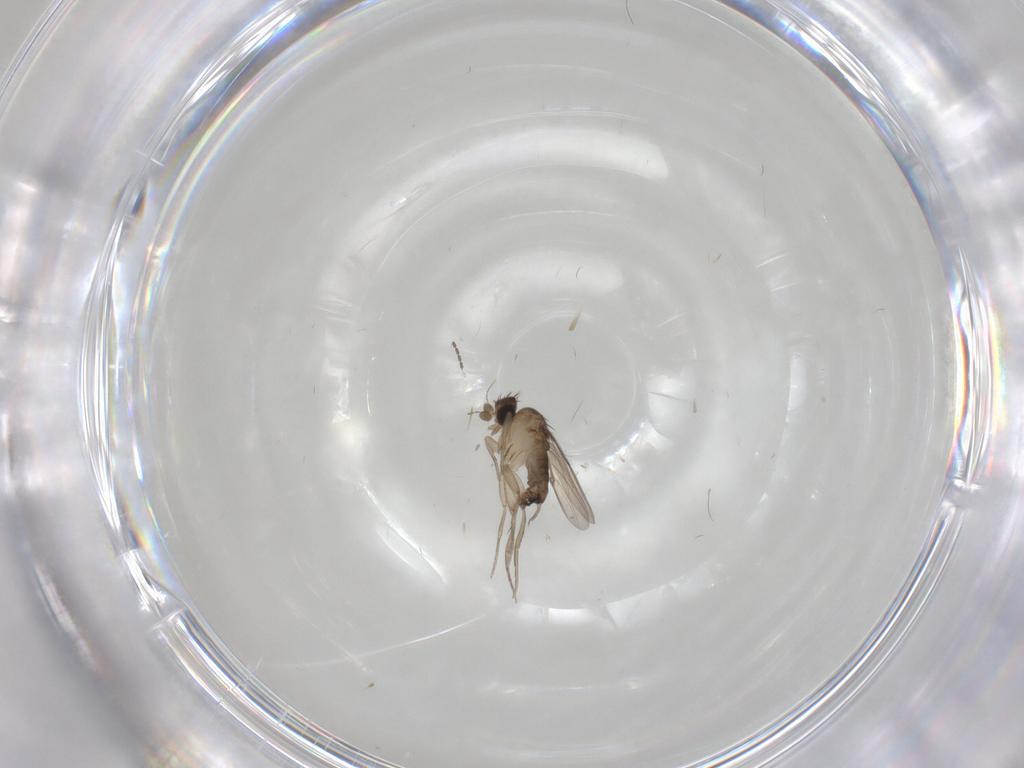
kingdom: Animalia
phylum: Arthropoda
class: Insecta
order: Diptera
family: Phoridae
